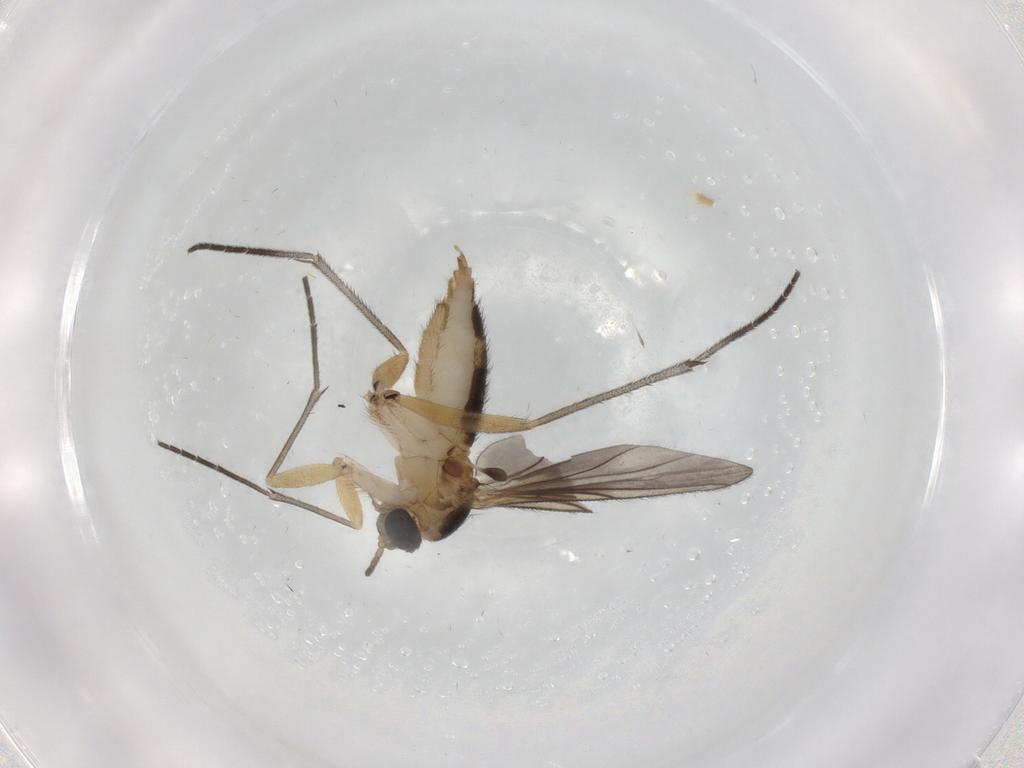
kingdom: Animalia
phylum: Arthropoda
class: Insecta
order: Diptera
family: Sciaridae
